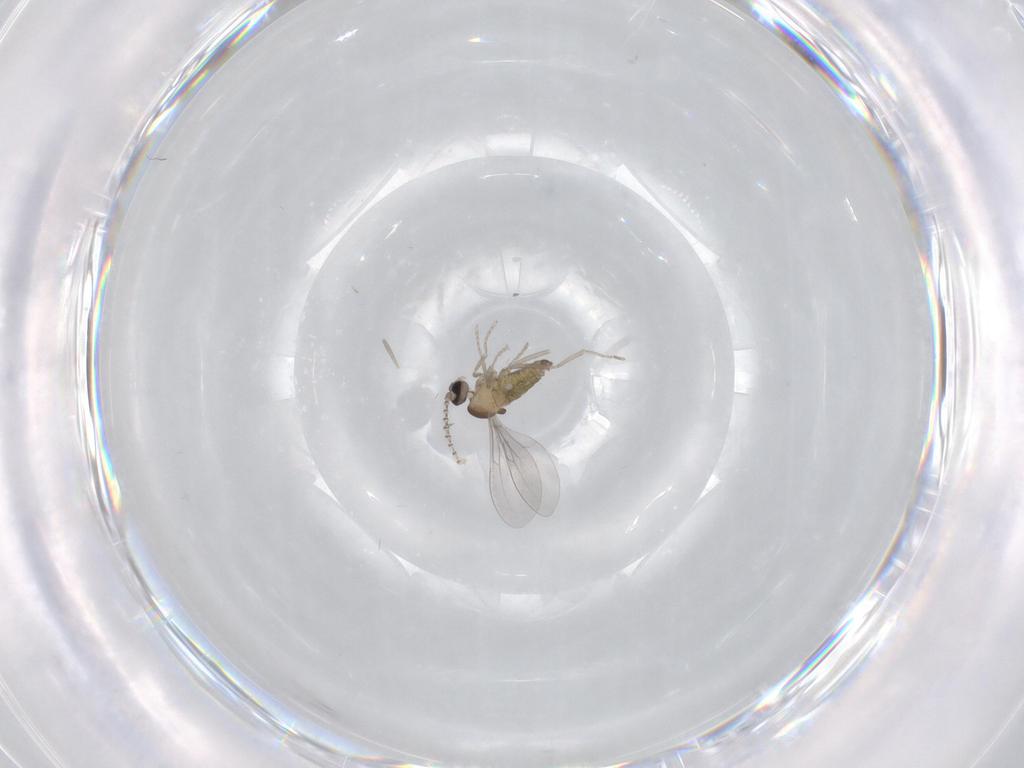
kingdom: Animalia
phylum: Arthropoda
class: Insecta
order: Diptera
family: Cecidomyiidae
